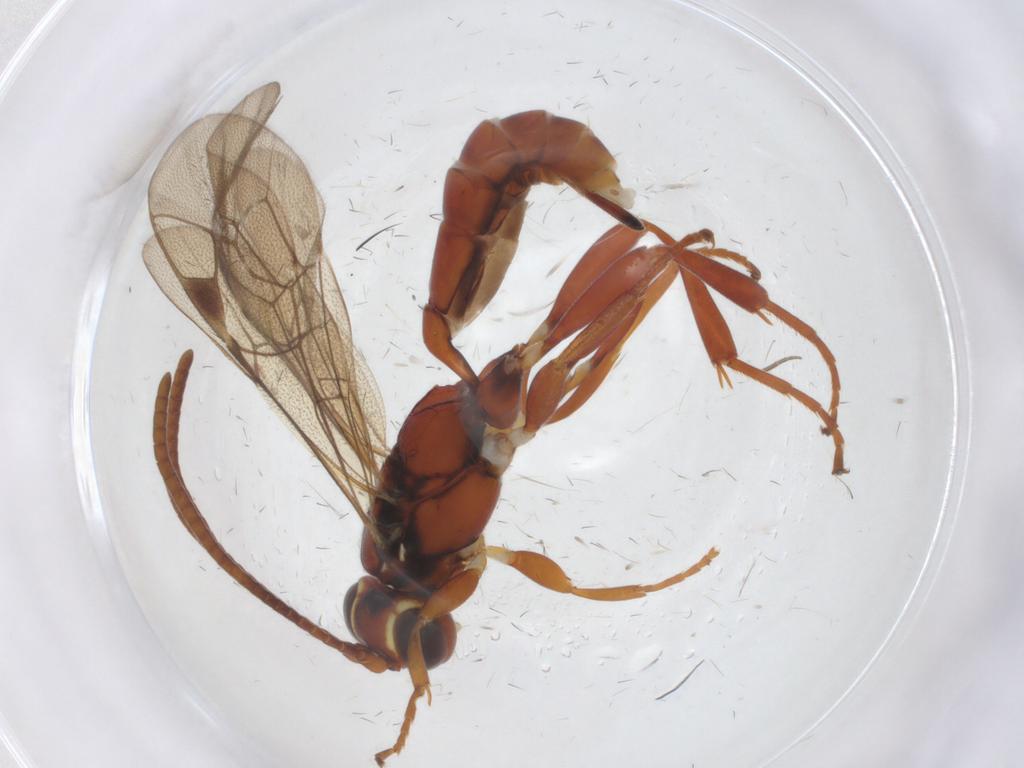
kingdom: Animalia
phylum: Arthropoda
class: Insecta
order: Hymenoptera
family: Ichneumonidae
